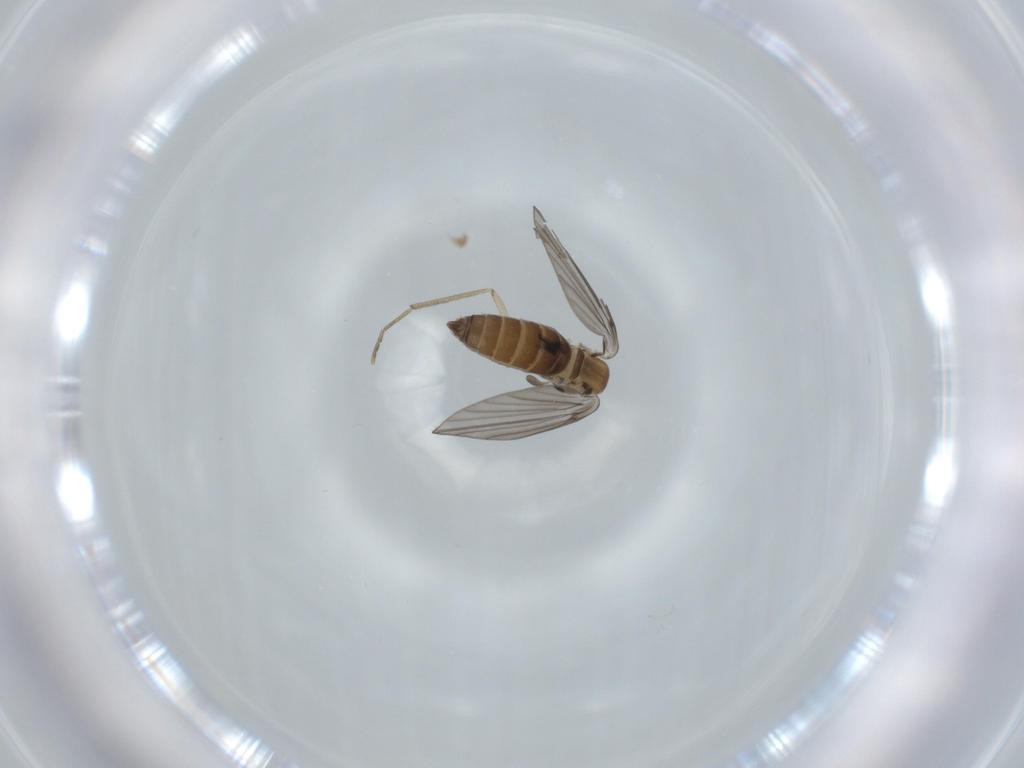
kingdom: Animalia
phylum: Arthropoda
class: Insecta
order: Diptera
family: Psychodidae
